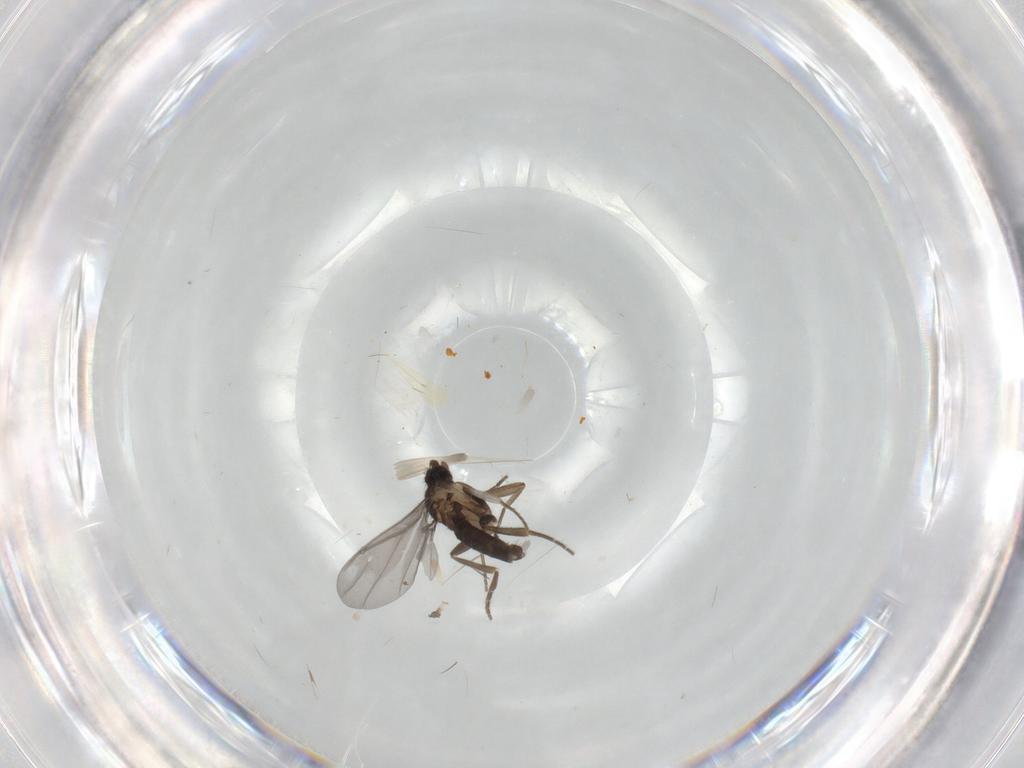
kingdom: Animalia
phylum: Arthropoda
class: Insecta
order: Diptera
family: Phoridae
